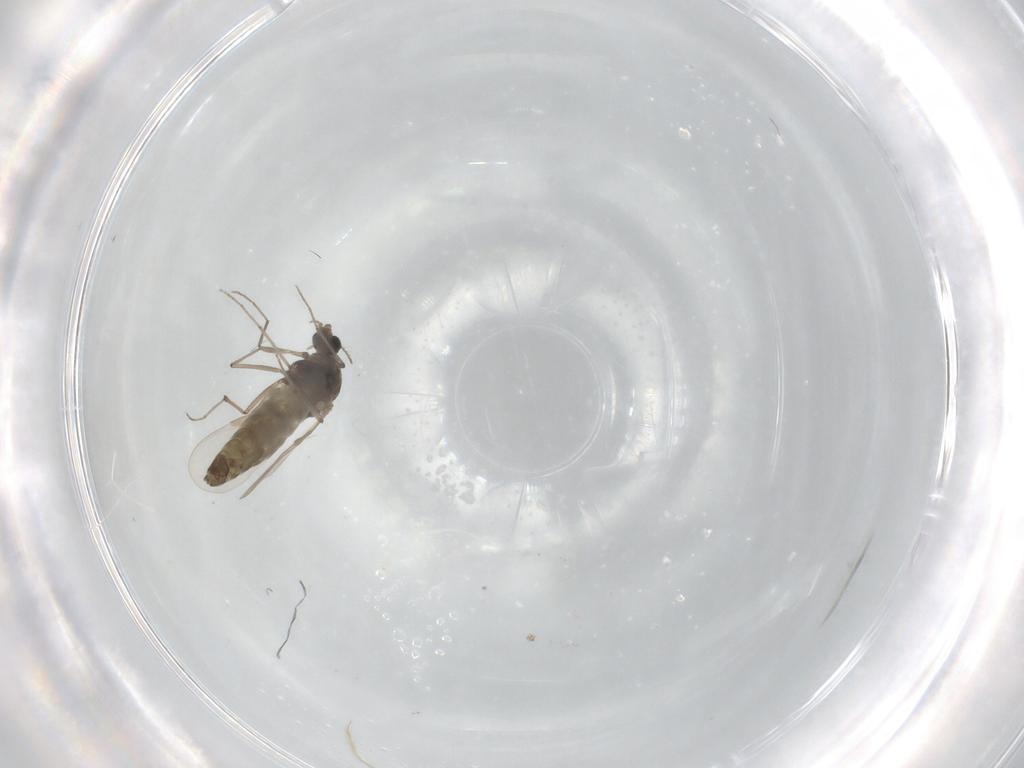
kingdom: Animalia
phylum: Arthropoda
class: Insecta
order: Diptera
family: Chironomidae
